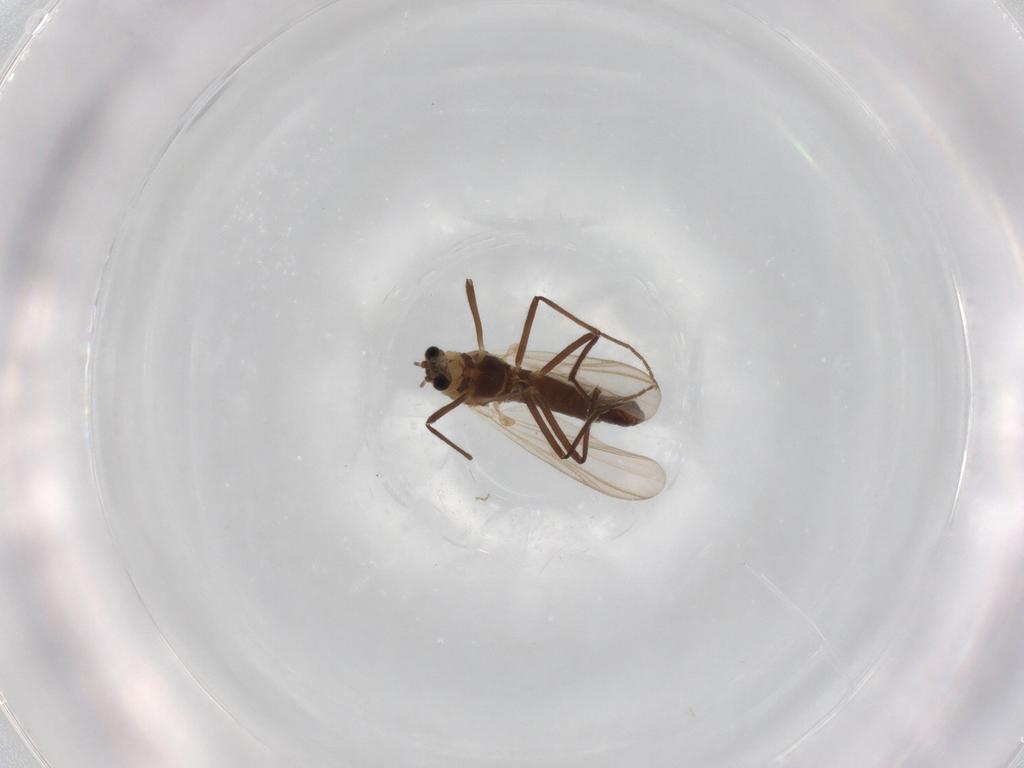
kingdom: Animalia
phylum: Arthropoda
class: Insecta
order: Diptera
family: Chironomidae
